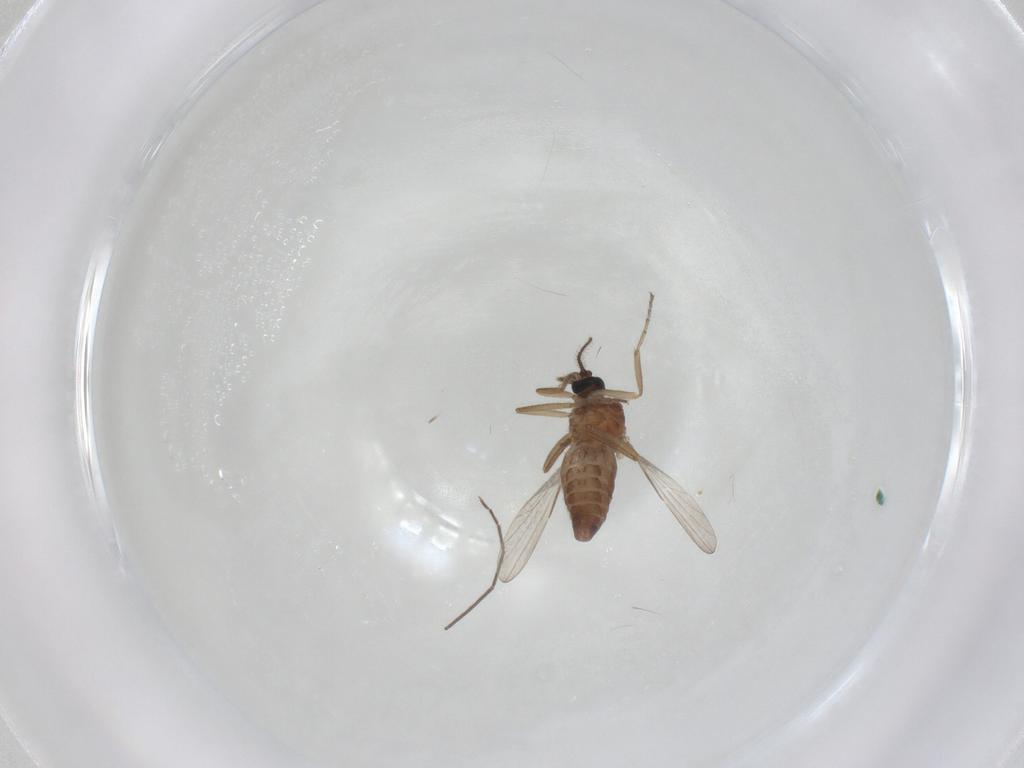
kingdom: Animalia
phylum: Arthropoda
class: Insecta
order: Diptera
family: Ceratopogonidae
